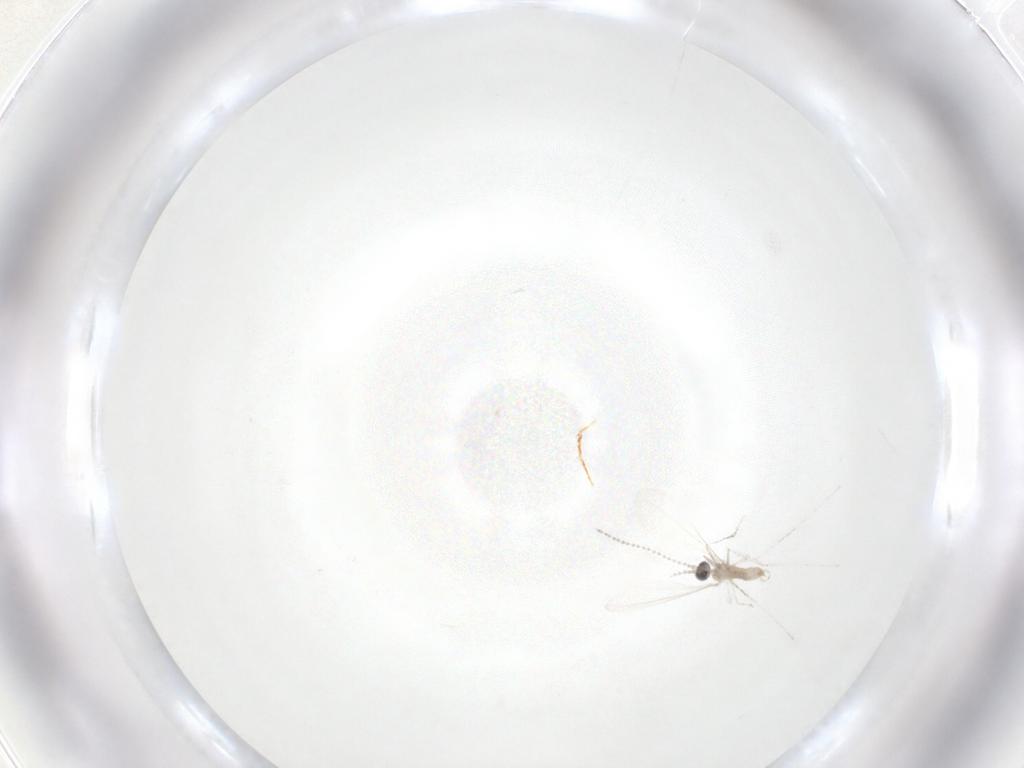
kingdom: Animalia
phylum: Arthropoda
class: Insecta
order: Diptera
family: Cecidomyiidae
